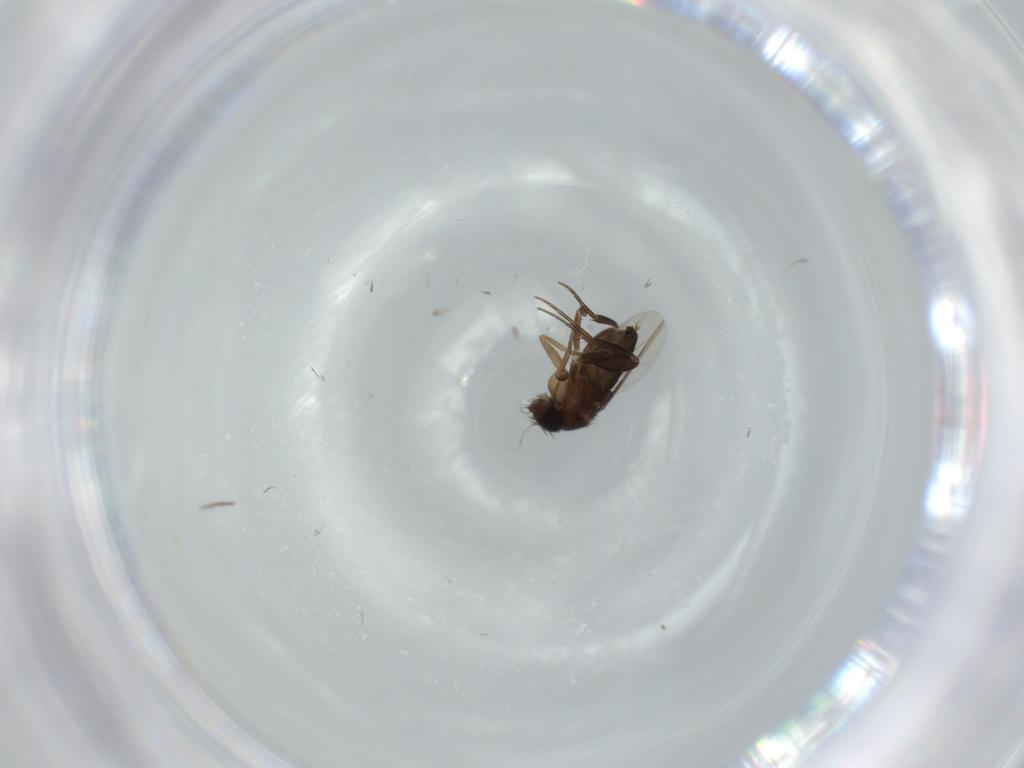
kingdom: Animalia
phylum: Arthropoda
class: Insecta
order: Diptera
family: Phoridae
